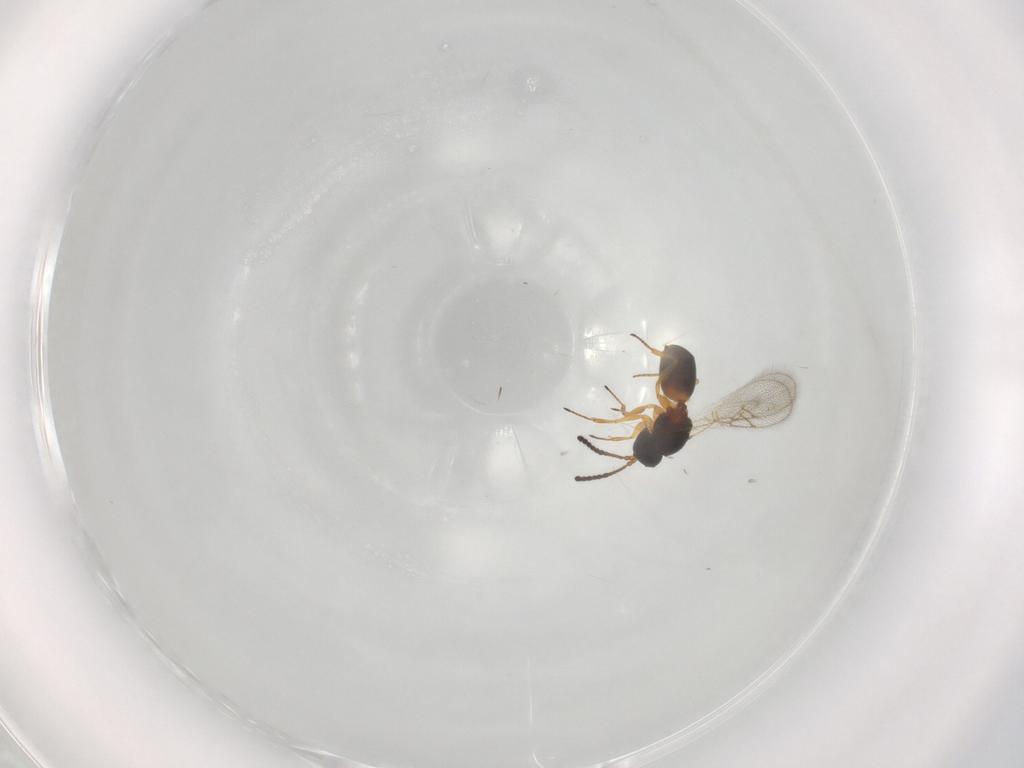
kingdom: Animalia
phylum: Arthropoda
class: Insecta
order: Hymenoptera
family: Figitidae
